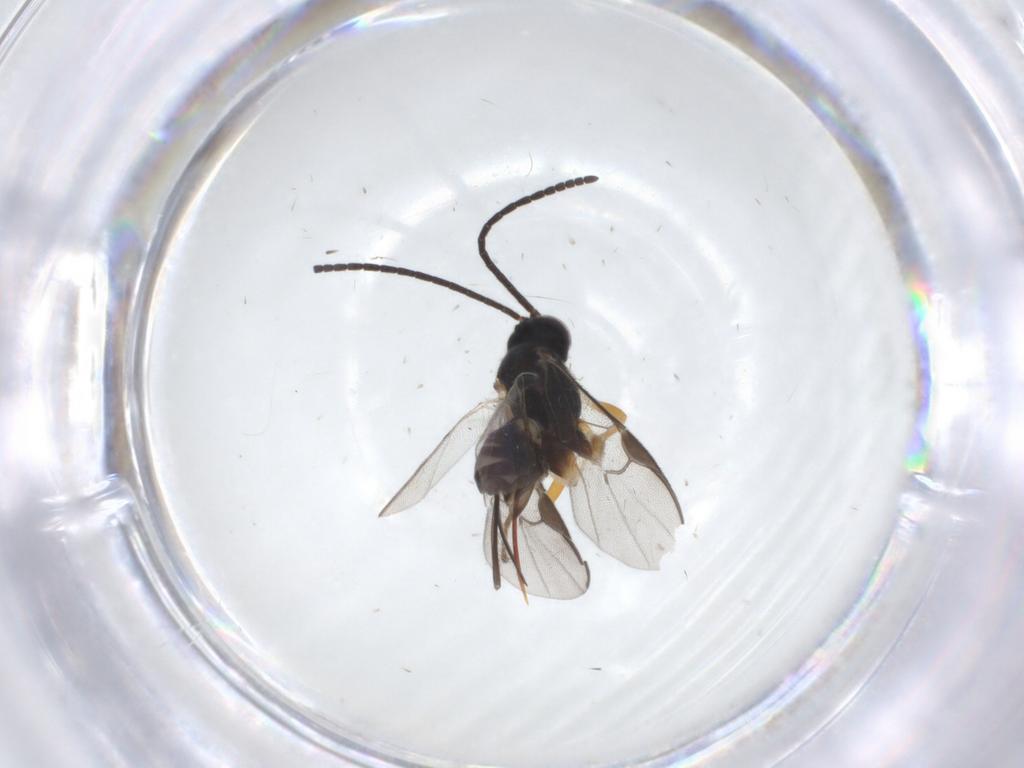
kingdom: Animalia
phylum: Arthropoda
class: Insecta
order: Hymenoptera
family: Braconidae
